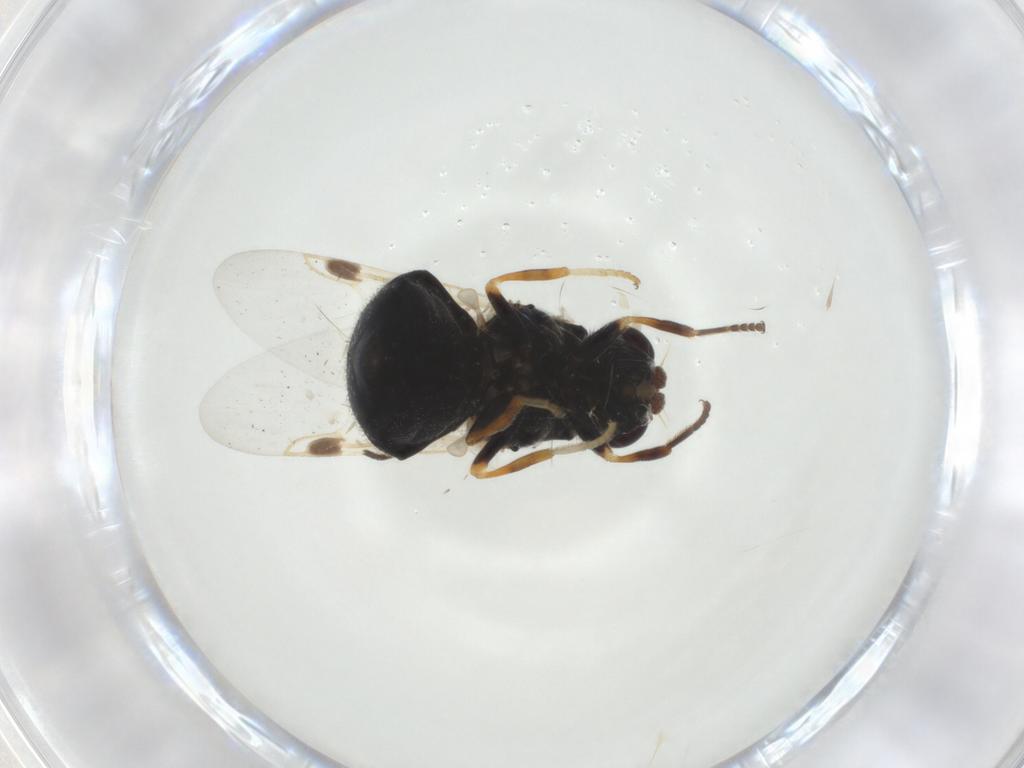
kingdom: Animalia
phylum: Arthropoda
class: Insecta
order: Diptera
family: Stratiomyidae
